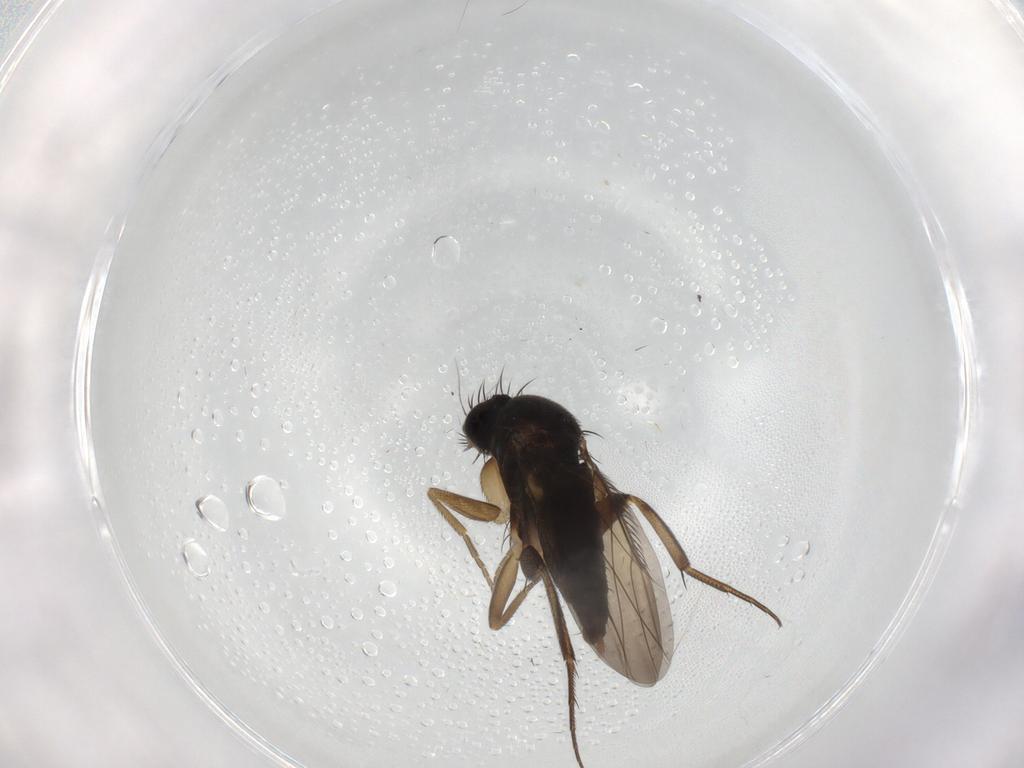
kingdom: Animalia
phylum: Arthropoda
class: Insecta
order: Diptera
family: Phoridae
